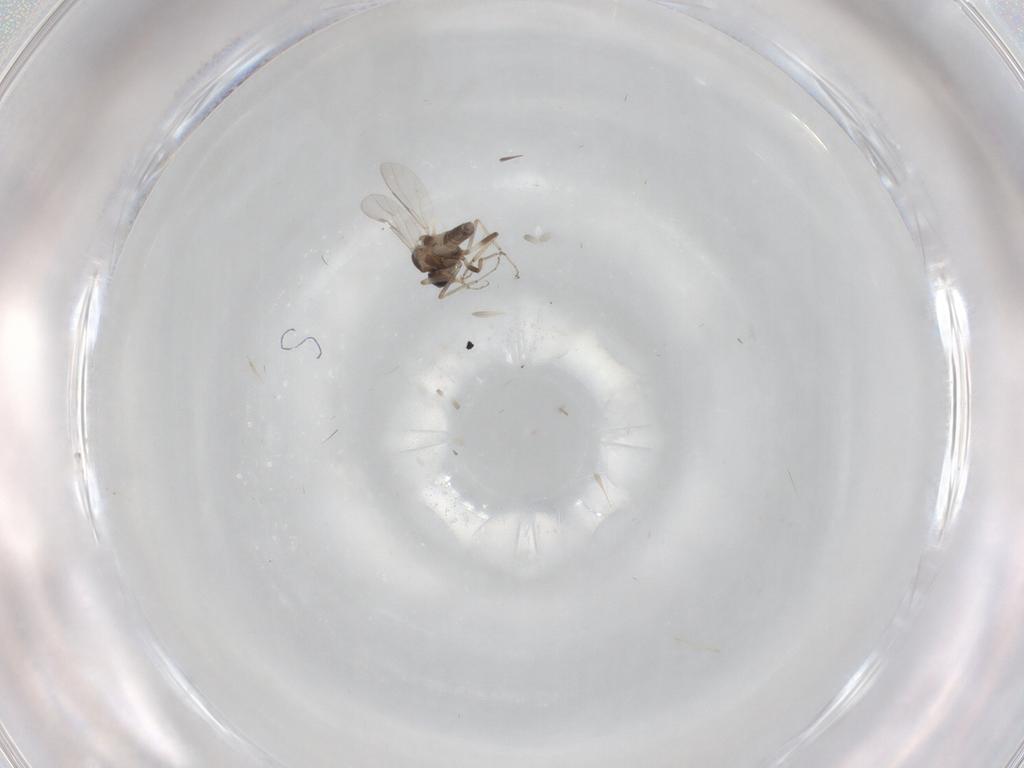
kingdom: Animalia
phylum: Arthropoda
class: Insecta
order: Diptera
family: Ceratopogonidae
